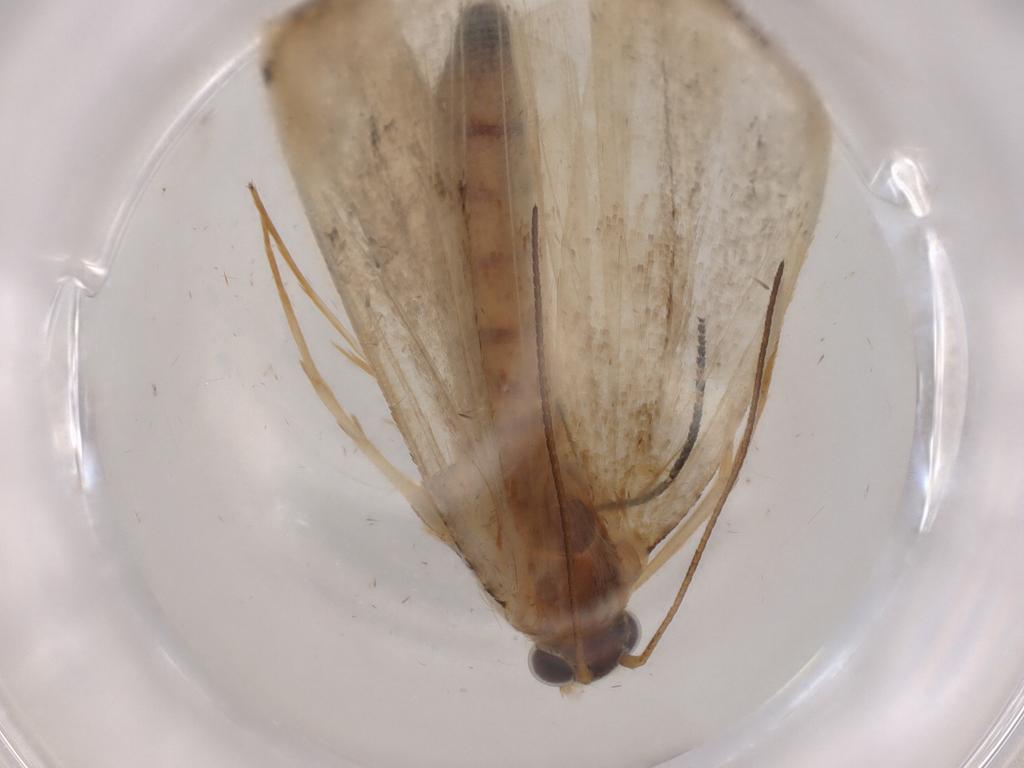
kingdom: Animalia
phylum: Arthropoda
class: Insecta
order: Lepidoptera
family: Crambidae
